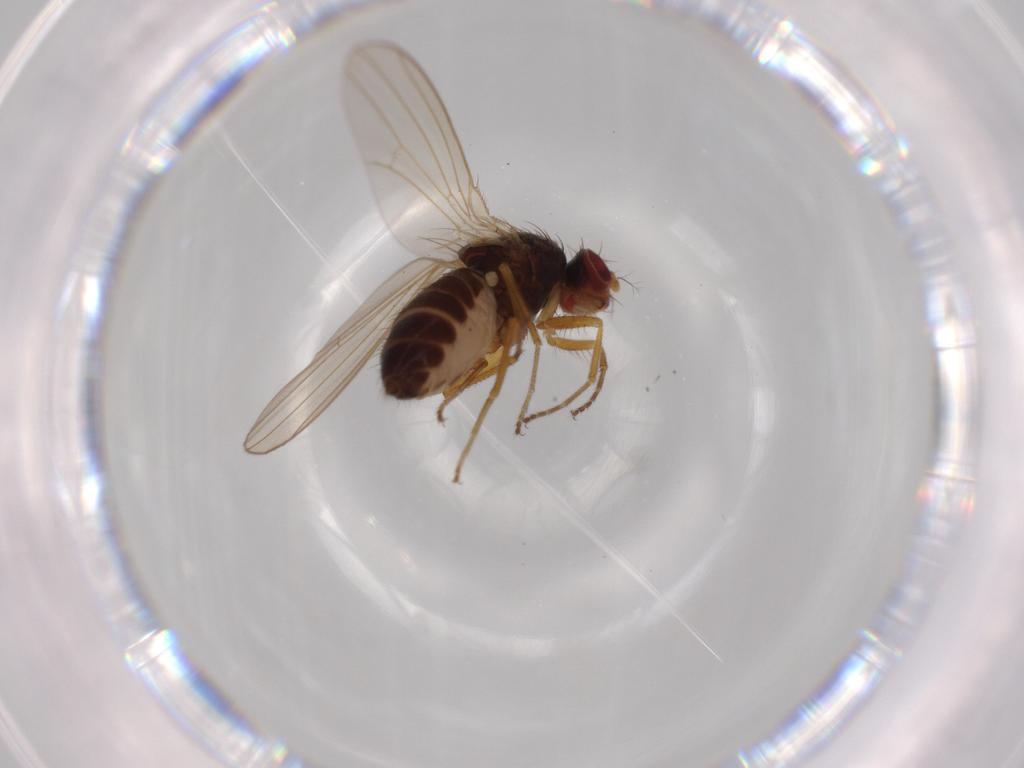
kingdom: Animalia
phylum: Arthropoda
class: Insecta
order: Diptera
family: Drosophilidae
